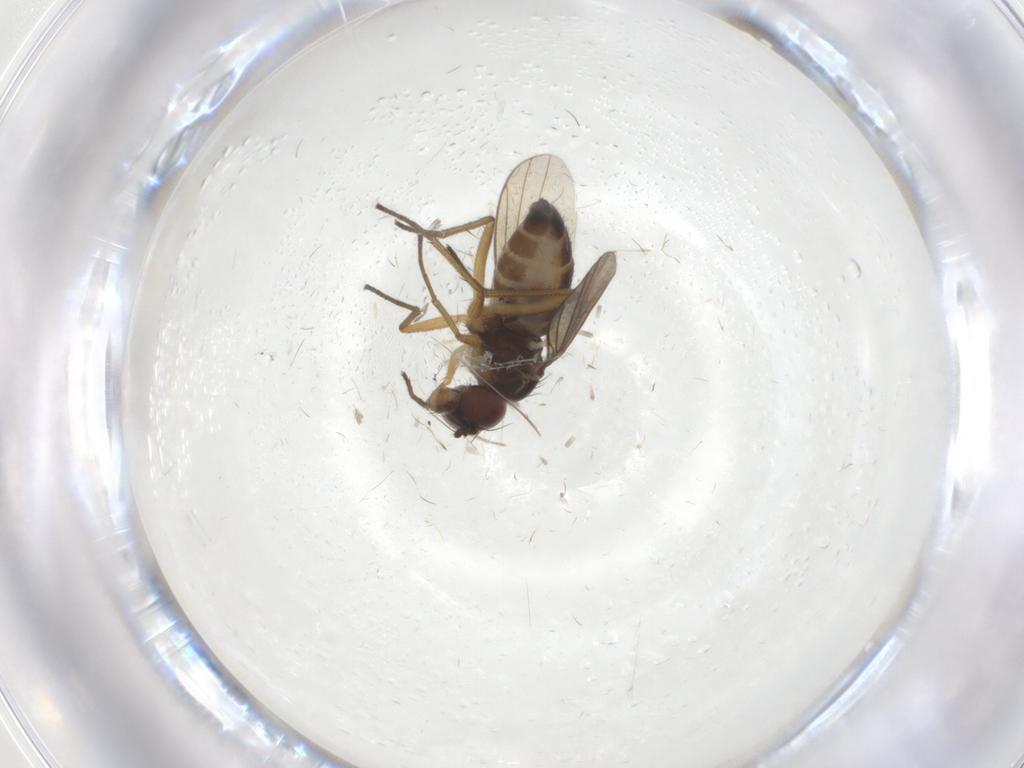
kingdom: Animalia
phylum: Arthropoda
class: Insecta
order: Diptera
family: Dolichopodidae
